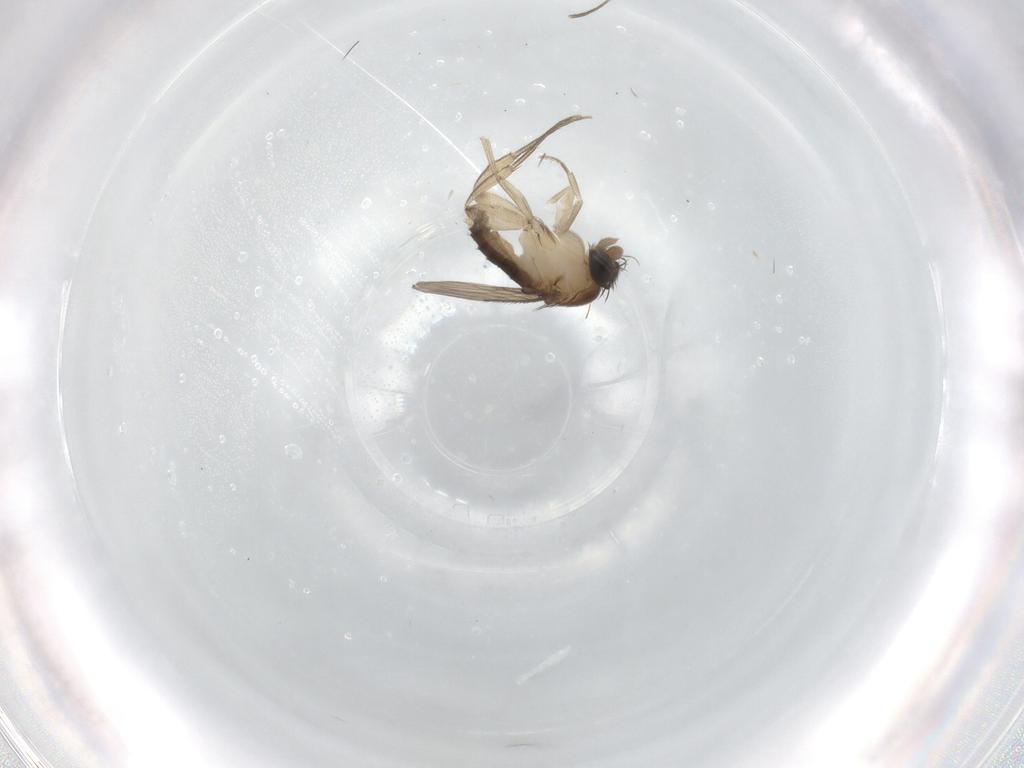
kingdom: Animalia
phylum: Arthropoda
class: Insecta
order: Diptera
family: Phoridae
